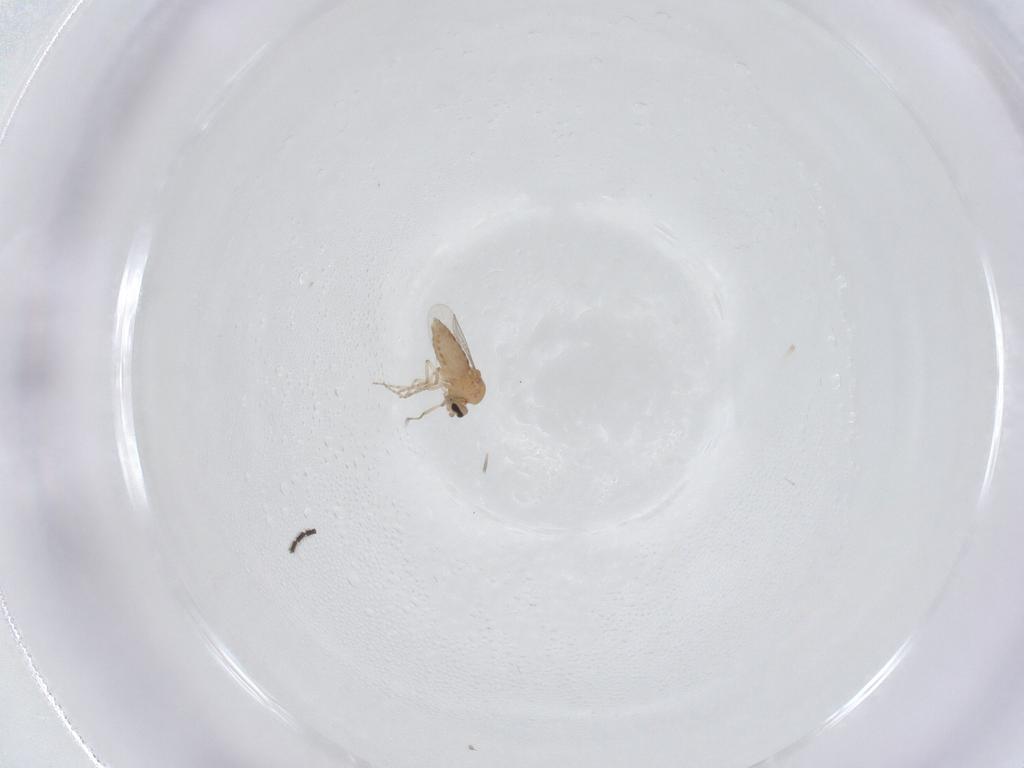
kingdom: Animalia
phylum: Arthropoda
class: Insecta
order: Diptera
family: Ceratopogonidae
